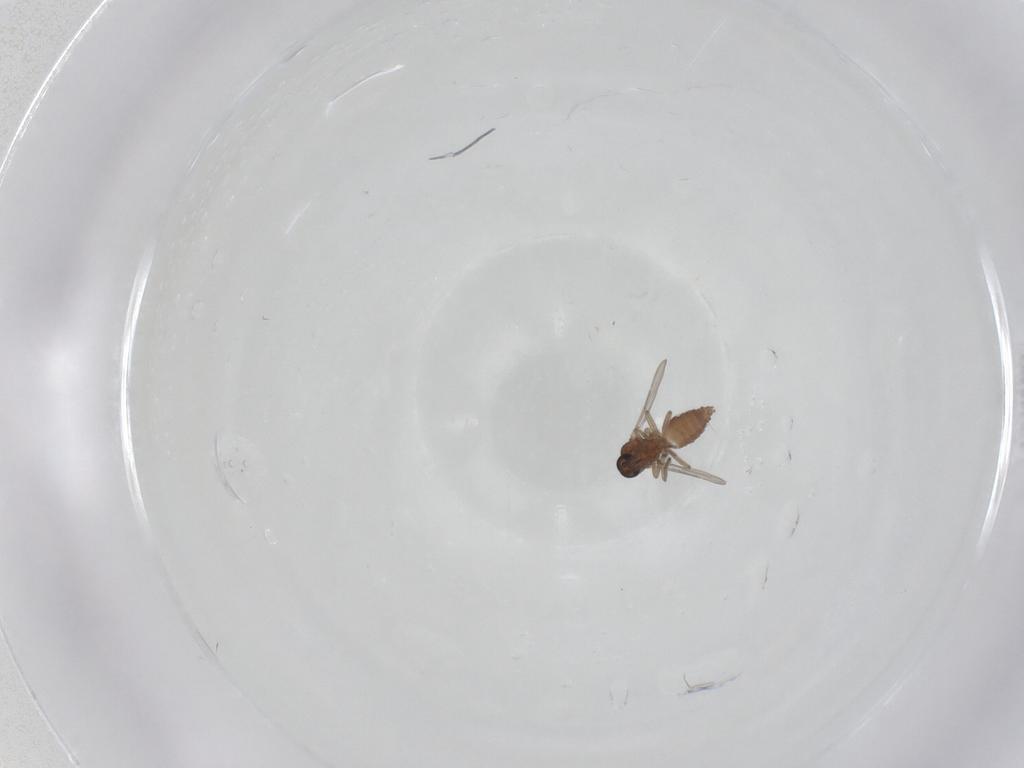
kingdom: Animalia
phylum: Arthropoda
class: Insecta
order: Diptera
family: Ceratopogonidae
